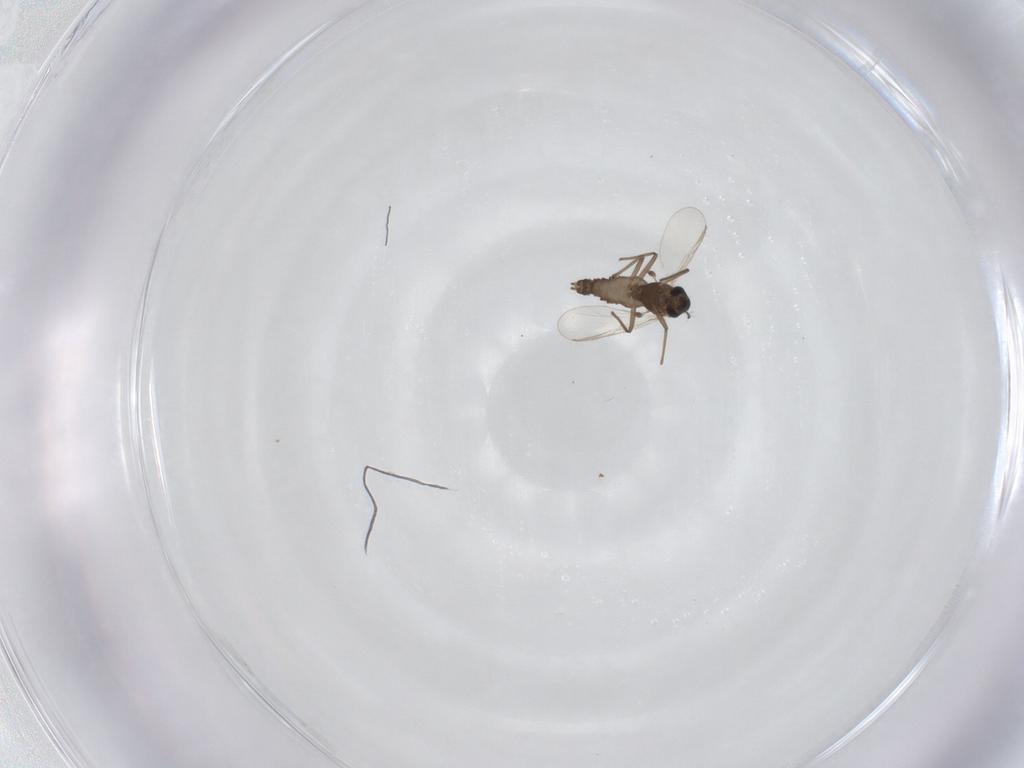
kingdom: Animalia
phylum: Arthropoda
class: Insecta
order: Diptera
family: Chironomidae
